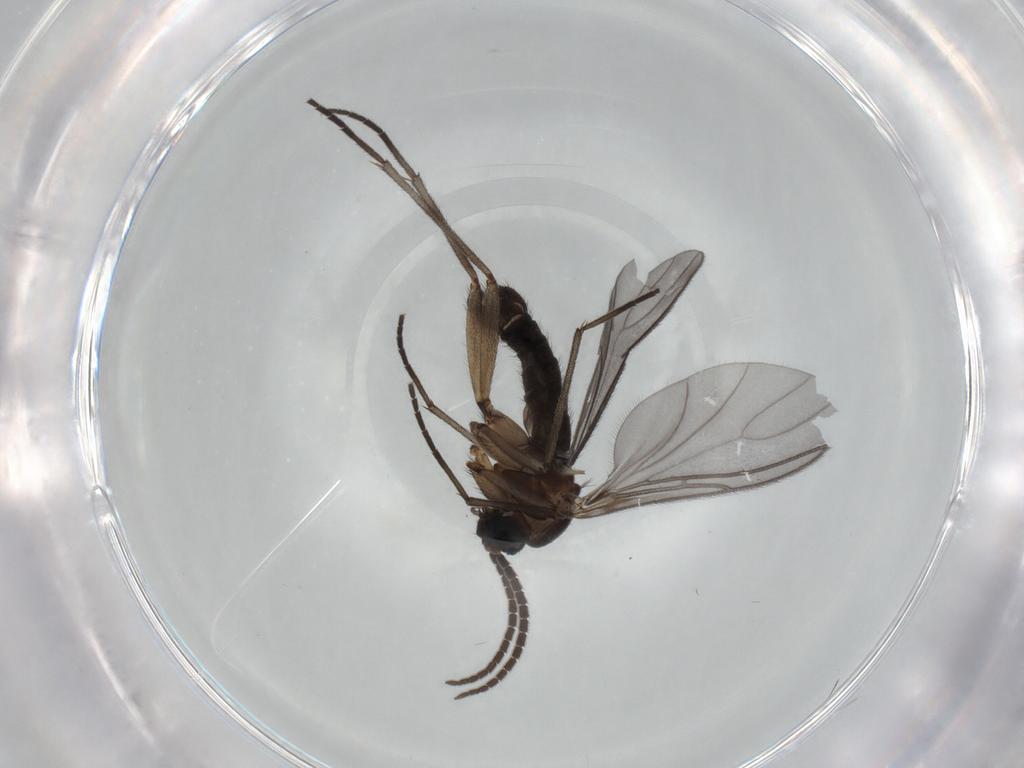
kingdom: Animalia
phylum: Arthropoda
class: Insecta
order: Diptera
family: Sciaridae
